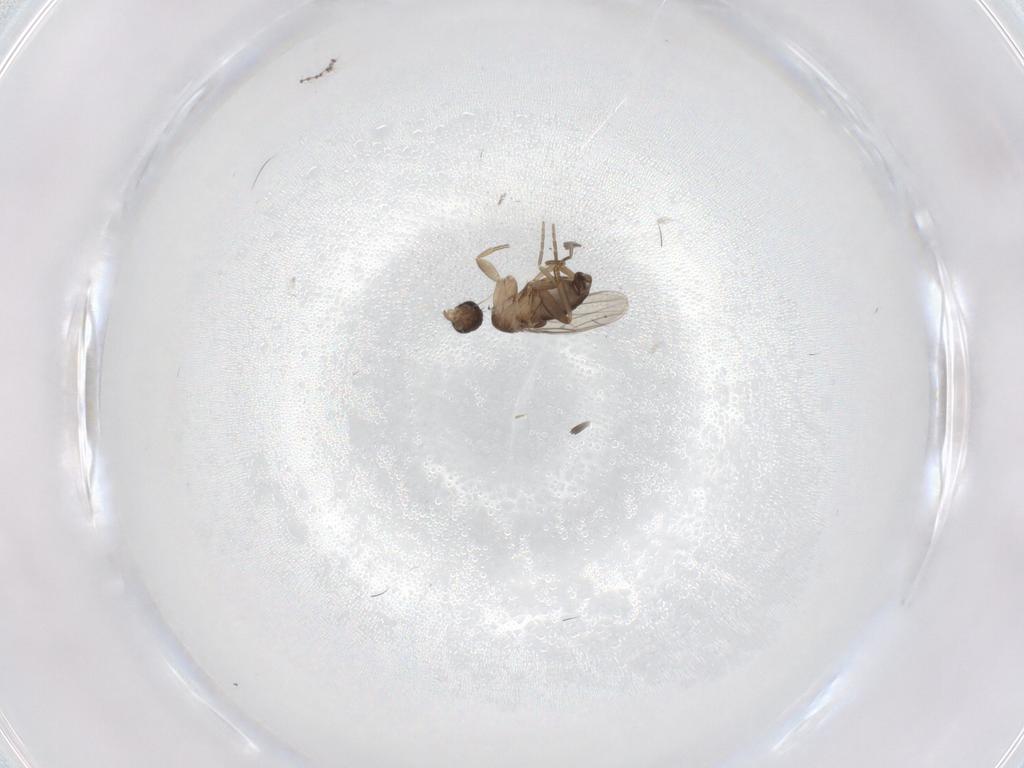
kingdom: Animalia
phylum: Arthropoda
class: Insecta
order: Diptera
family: Phoridae
